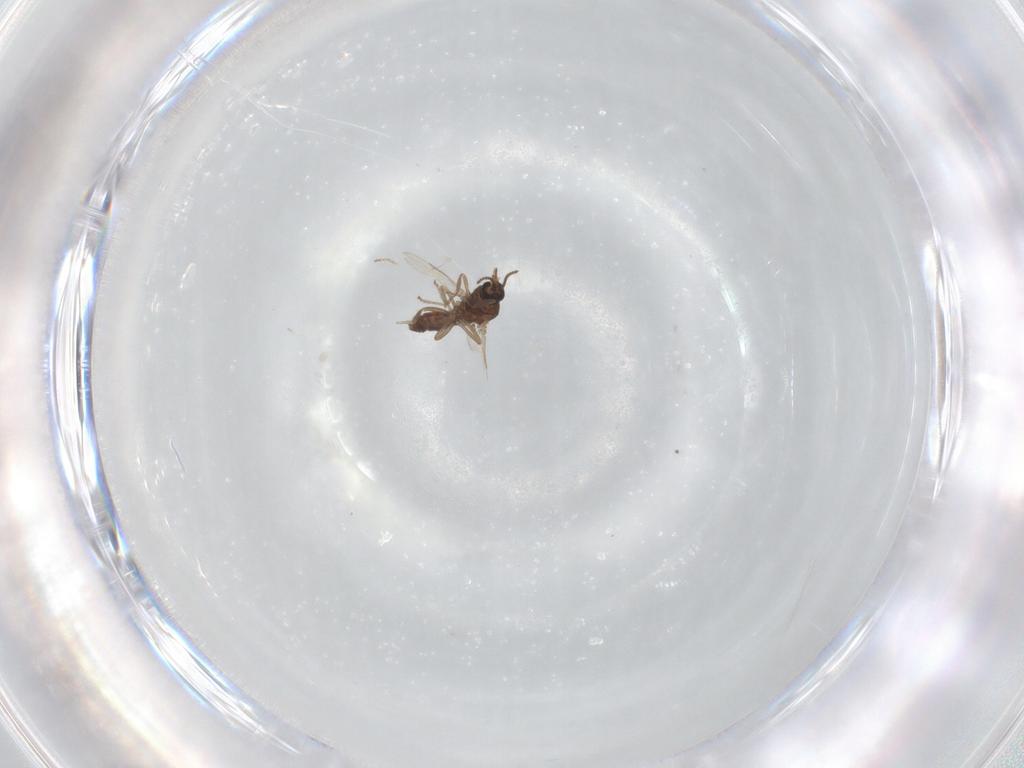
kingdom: Animalia
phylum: Arthropoda
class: Insecta
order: Diptera
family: Ceratopogonidae
